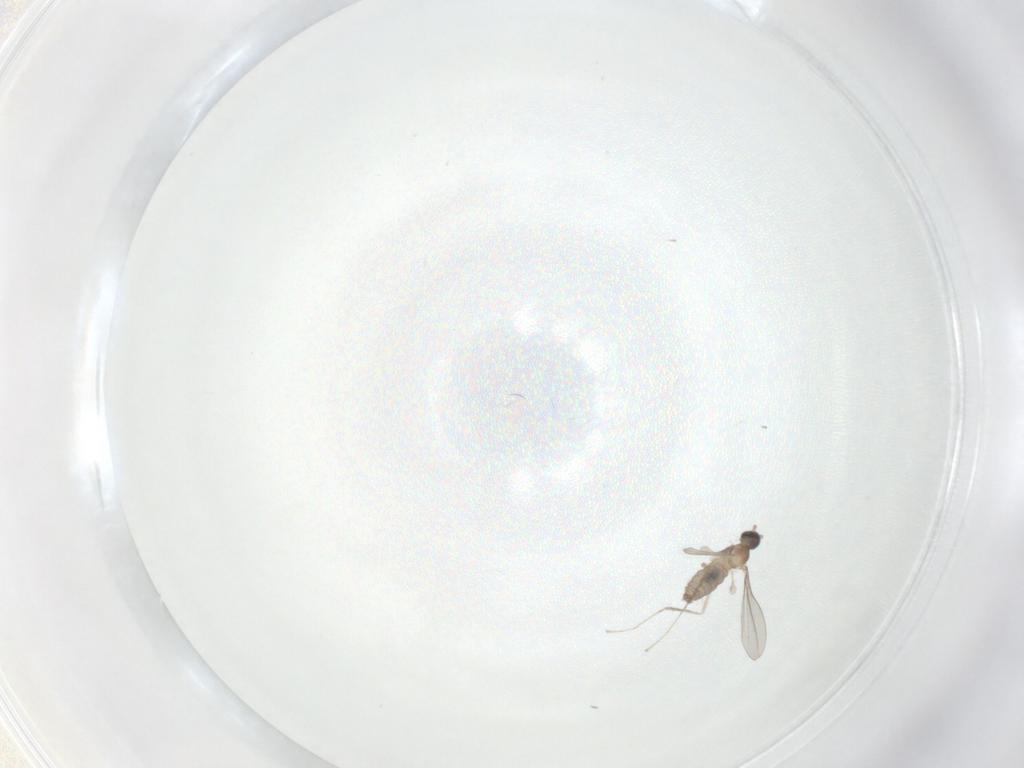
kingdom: Animalia
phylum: Arthropoda
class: Insecta
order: Diptera
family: Cecidomyiidae
